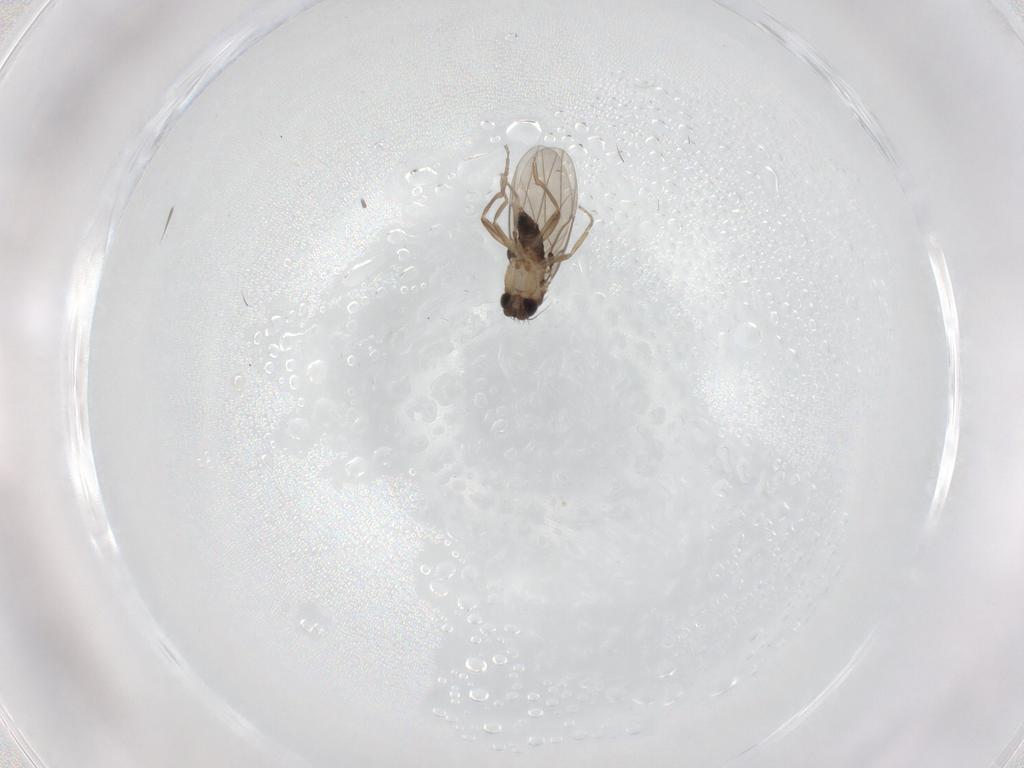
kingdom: Animalia
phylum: Arthropoda
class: Insecta
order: Diptera
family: Phoridae
